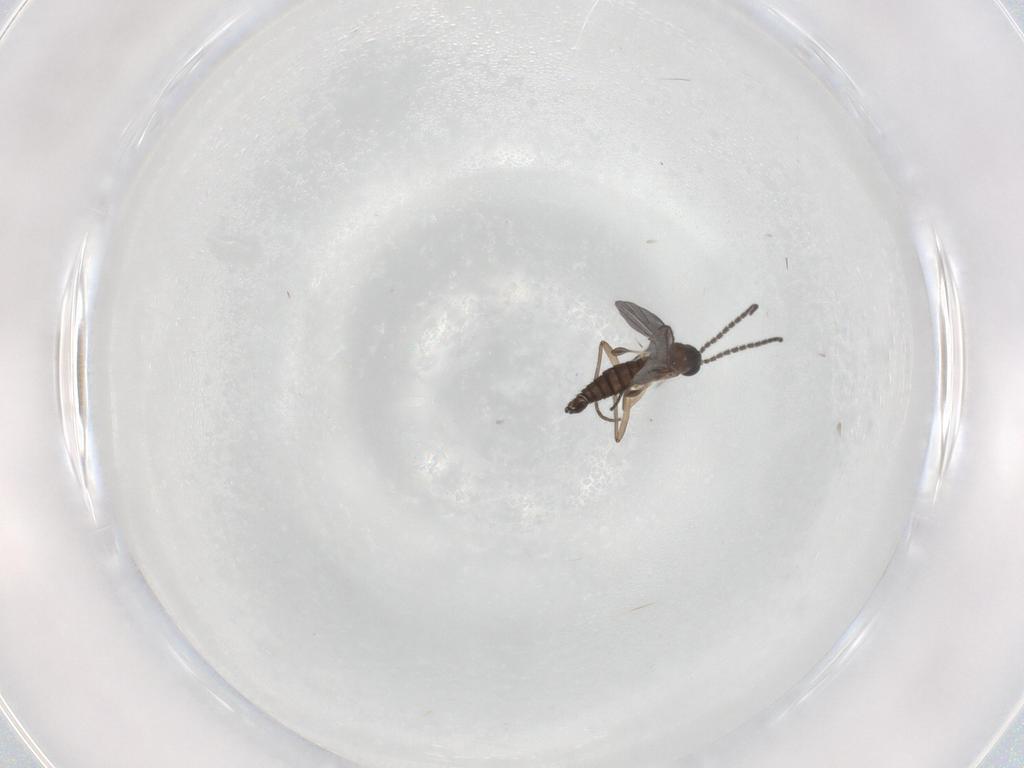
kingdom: Animalia
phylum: Arthropoda
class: Insecta
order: Diptera
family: Sciaridae
